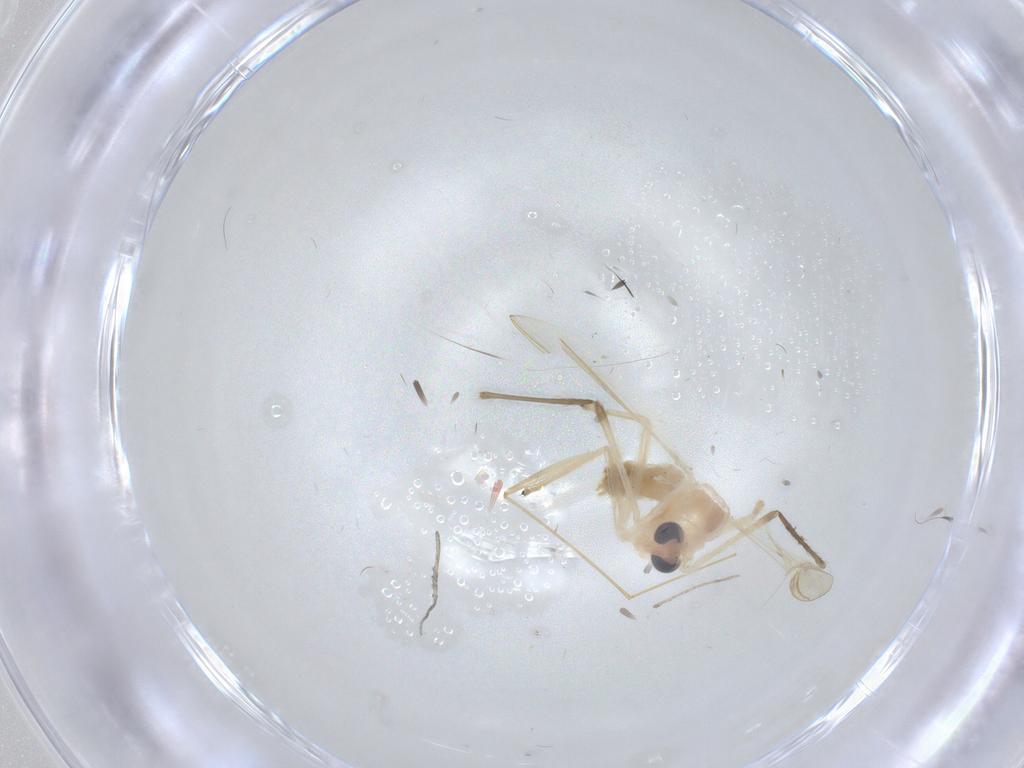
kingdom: Animalia
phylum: Arthropoda
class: Insecta
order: Diptera
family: Chironomidae
